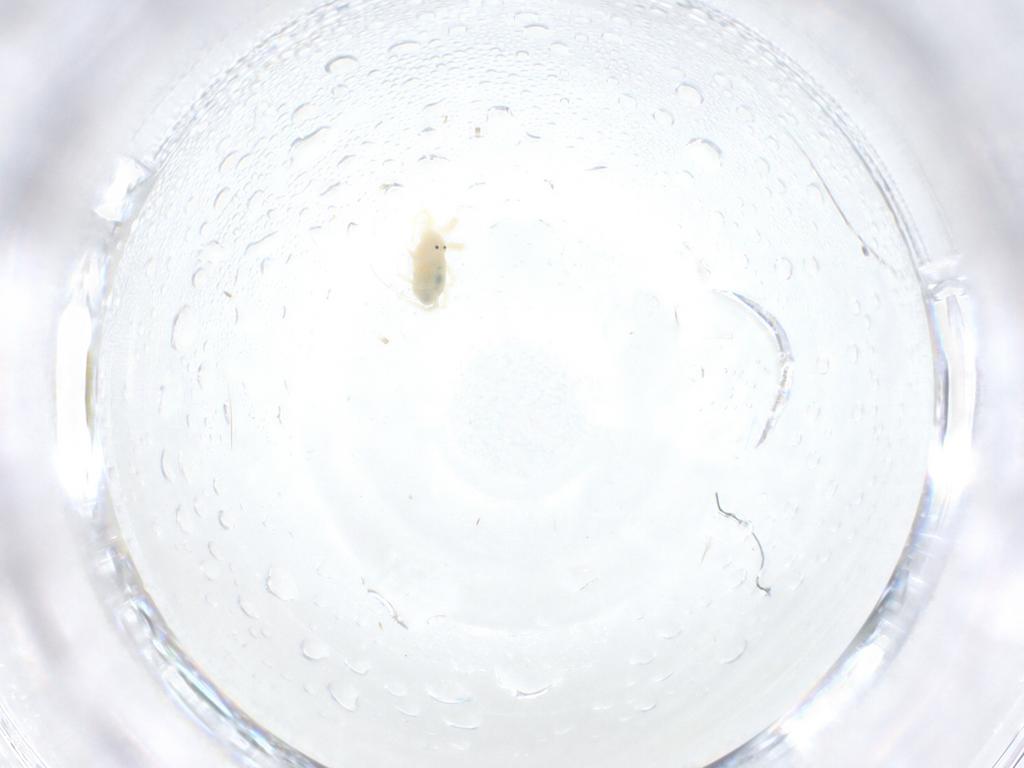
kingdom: Animalia
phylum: Arthropoda
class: Arachnida
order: Trombidiformes
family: Anystidae
